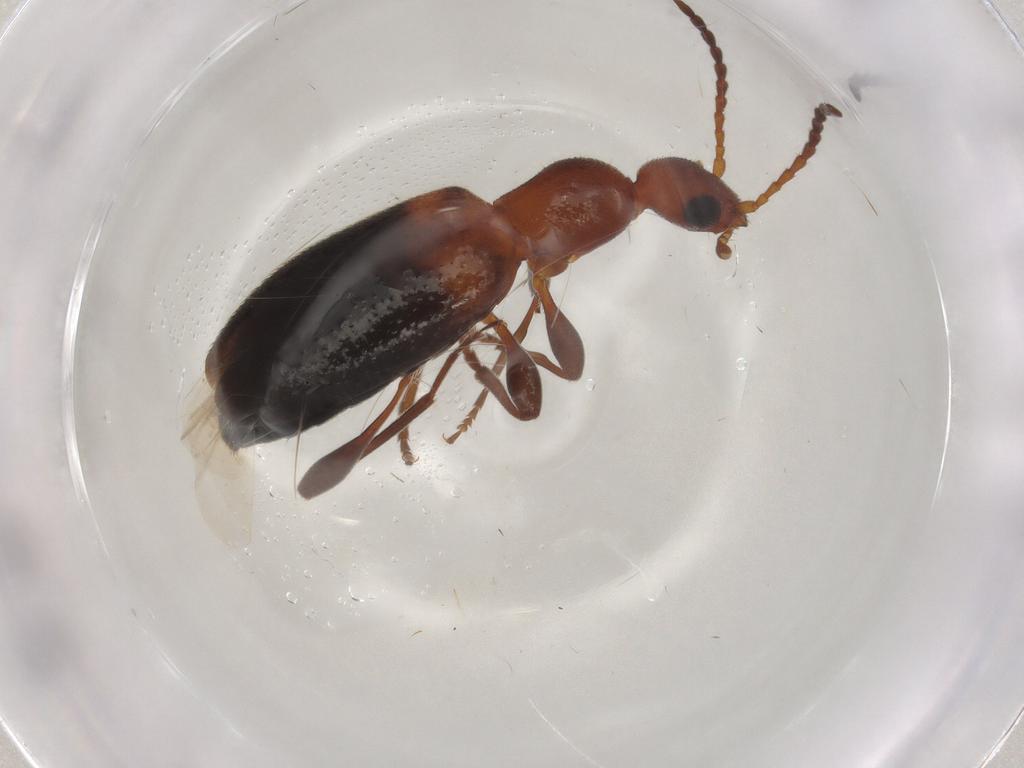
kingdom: Animalia
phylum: Arthropoda
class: Insecta
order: Coleoptera
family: Anthicidae
